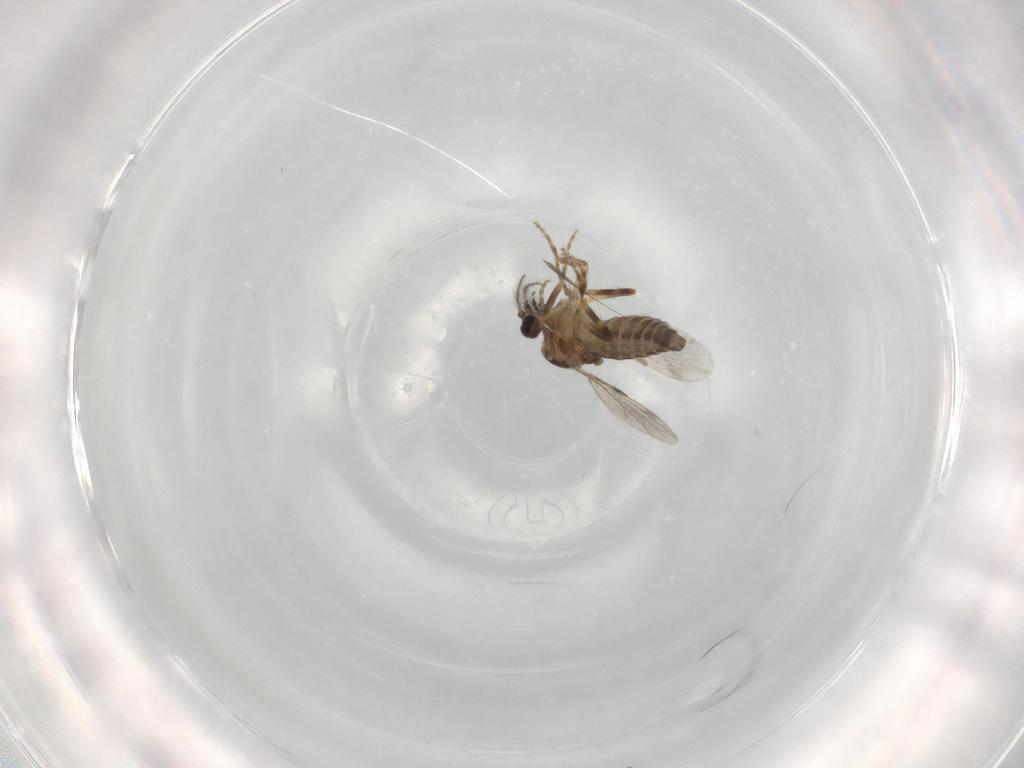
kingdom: Animalia
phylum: Arthropoda
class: Insecta
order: Diptera
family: Ceratopogonidae
